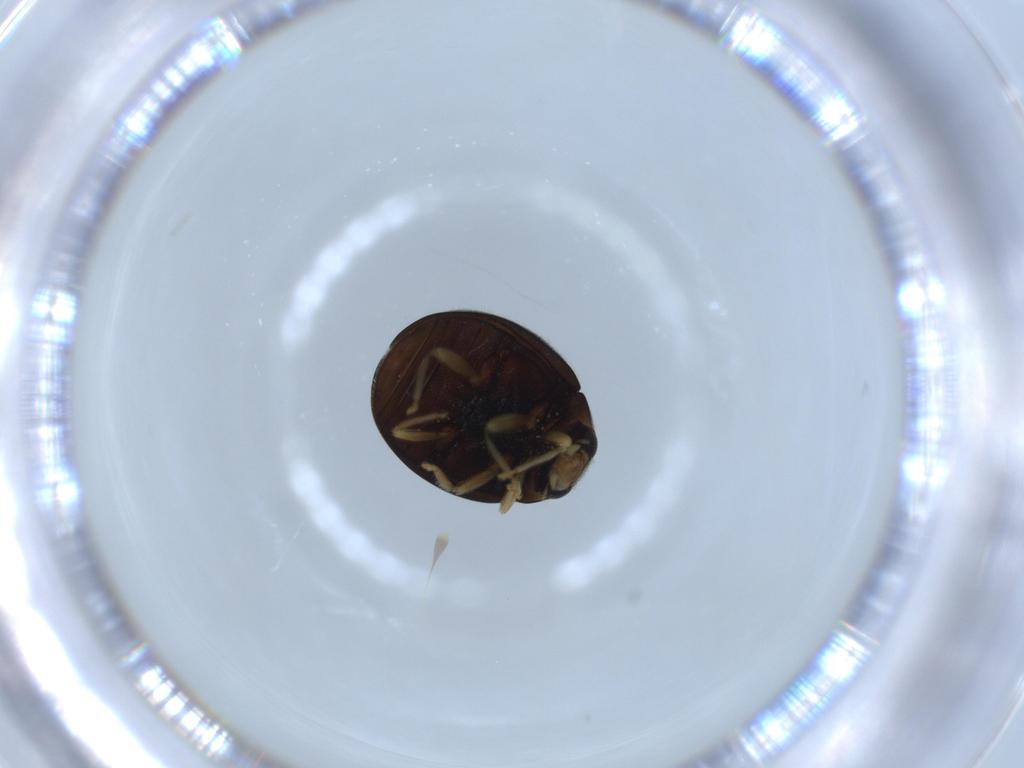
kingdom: Animalia
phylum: Arthropoda
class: Insecta
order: Coleoptera
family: Coccinellidae
